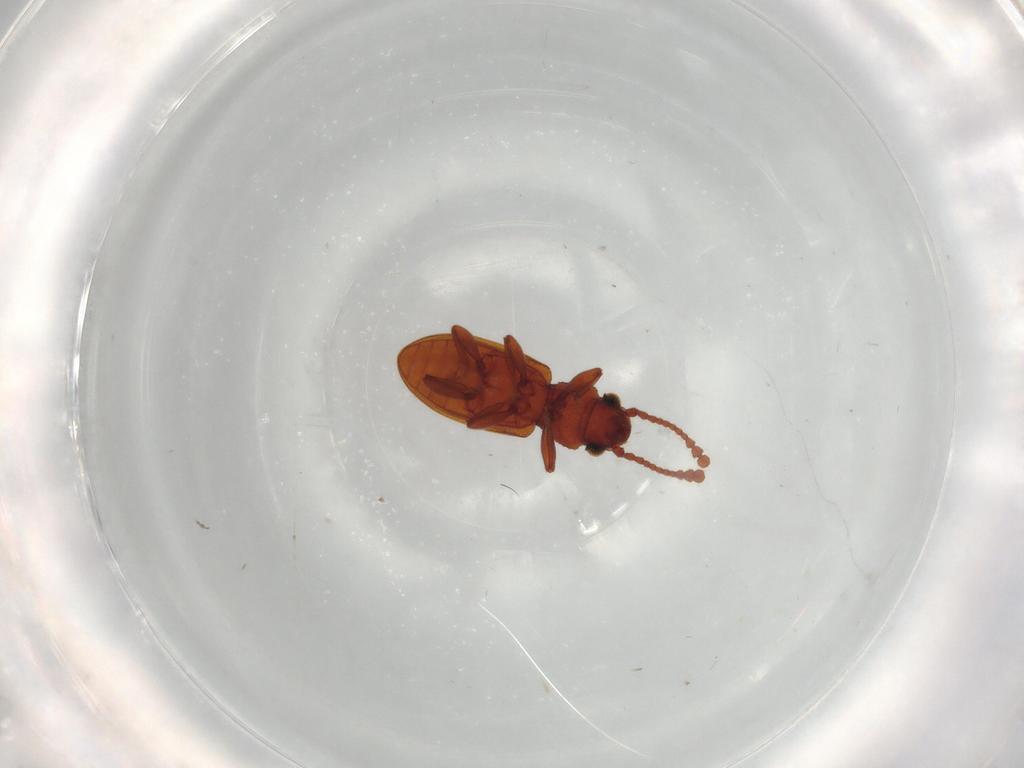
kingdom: Animalia
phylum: Arthropoda
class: Insecta
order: Coleoptera
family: Silvanidae
